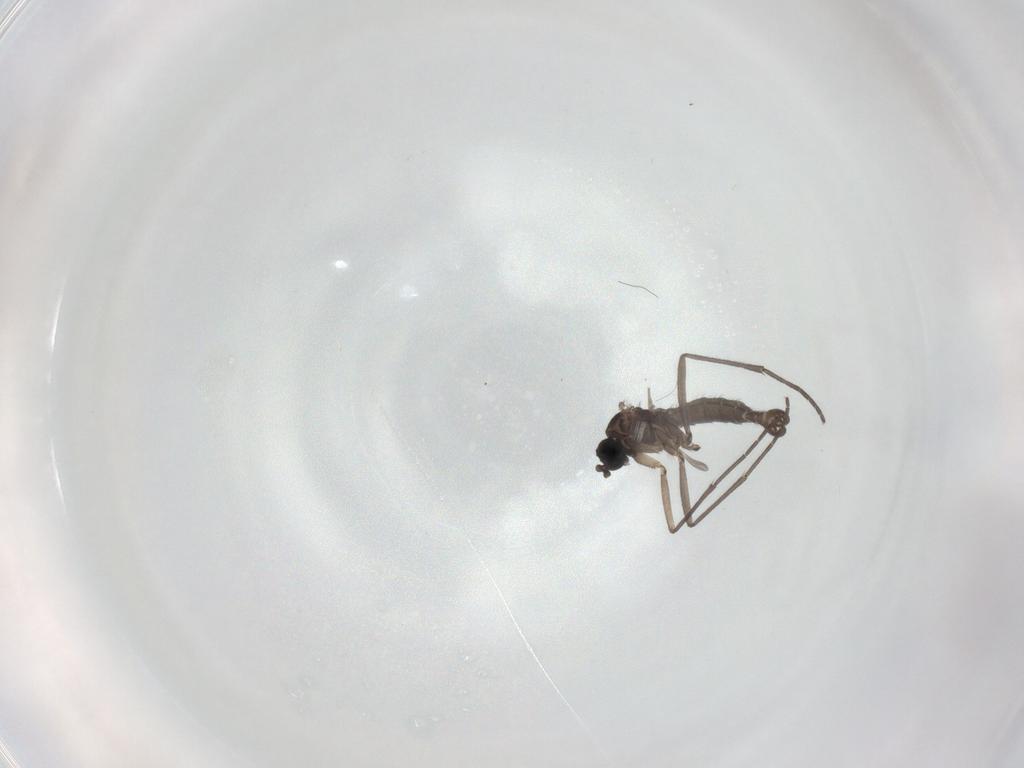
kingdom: Animalia
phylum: Arthropoda
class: Insecta
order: Diptera
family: Sciaridae
